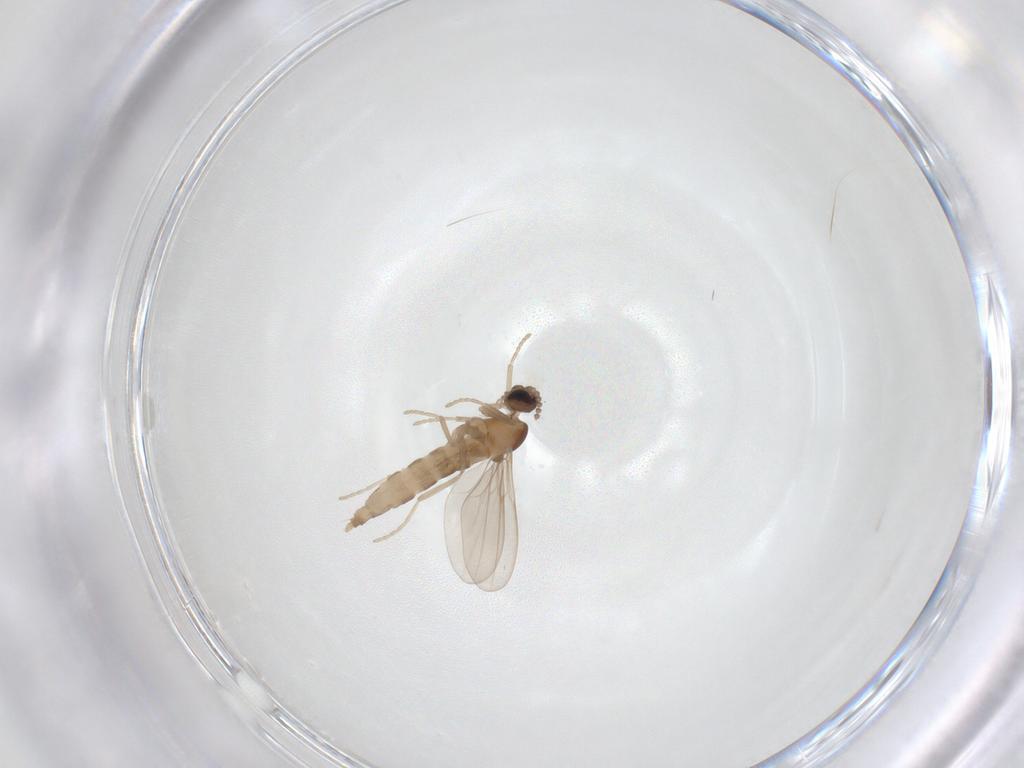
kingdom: Animalia
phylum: Arthropoda
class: Insecta
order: Diptera
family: Cecidomyiidae
